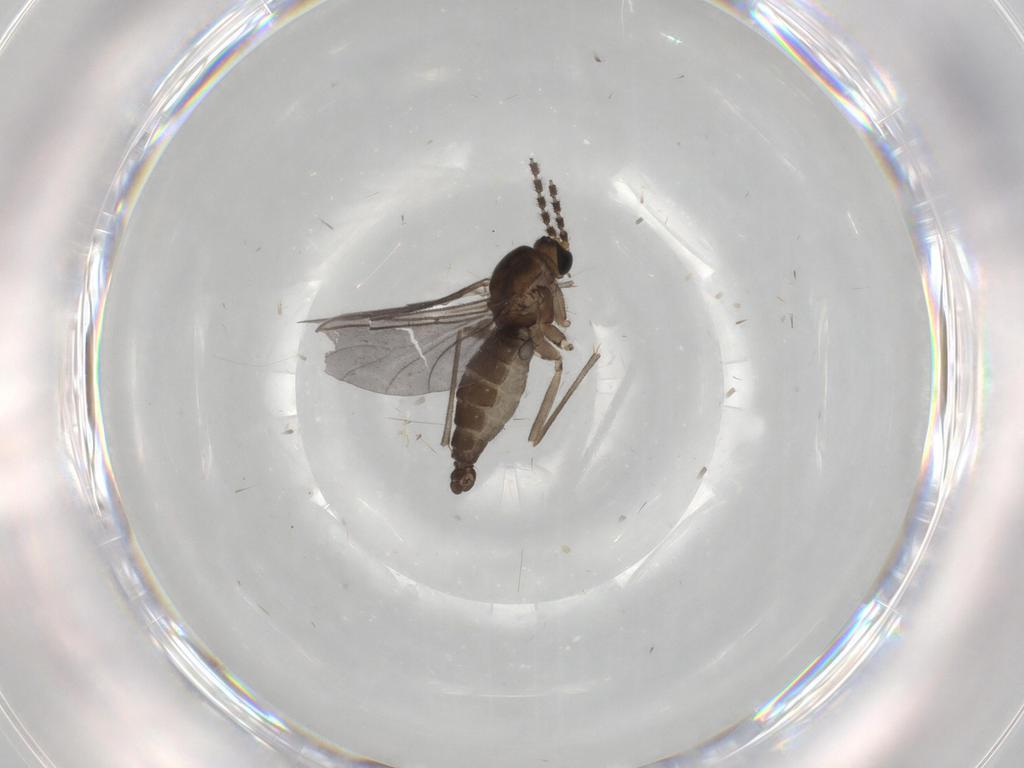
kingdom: Animalia
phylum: Arthropoda
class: Insecta
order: Diptera
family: Sciaridae
